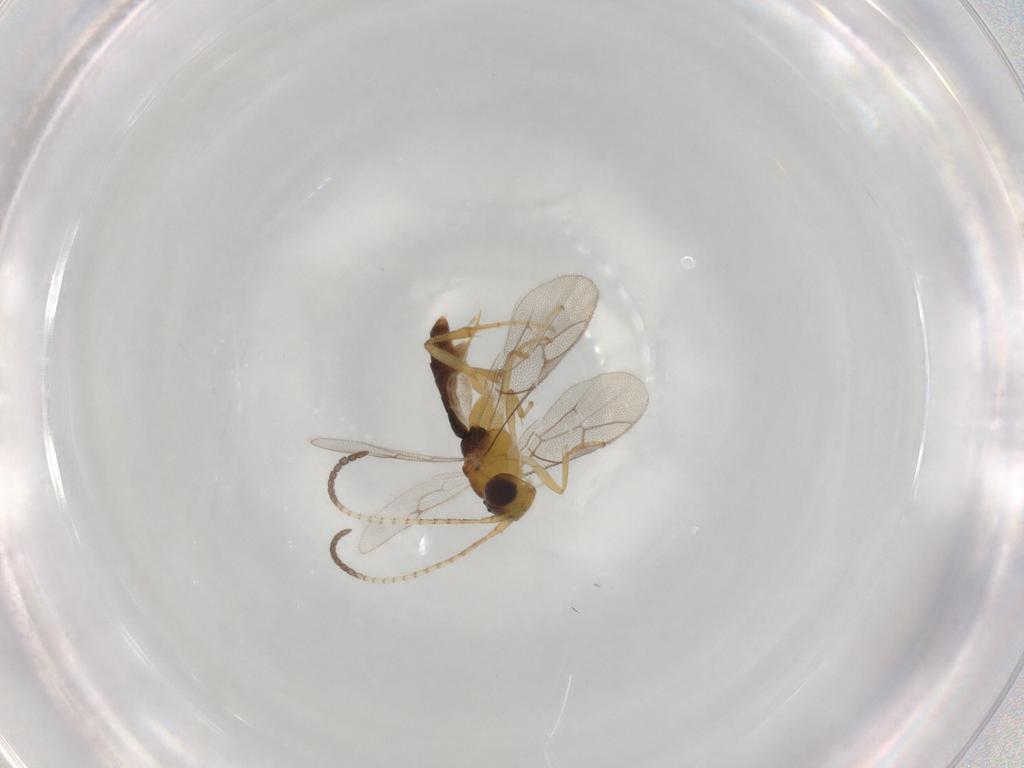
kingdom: Animalia
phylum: Arthropoda
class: Insecta
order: Hymenoptera
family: Ichneumonidae
